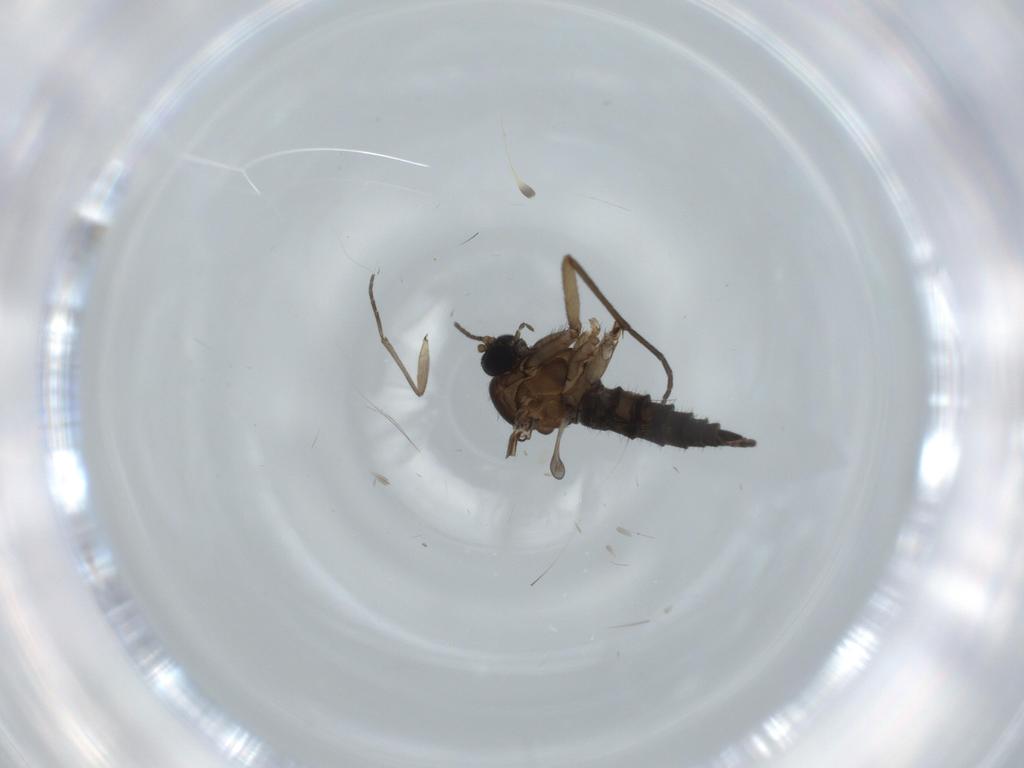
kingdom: Animalia
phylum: Arthropoda
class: Insecta
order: Diptera
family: Sciaridae
